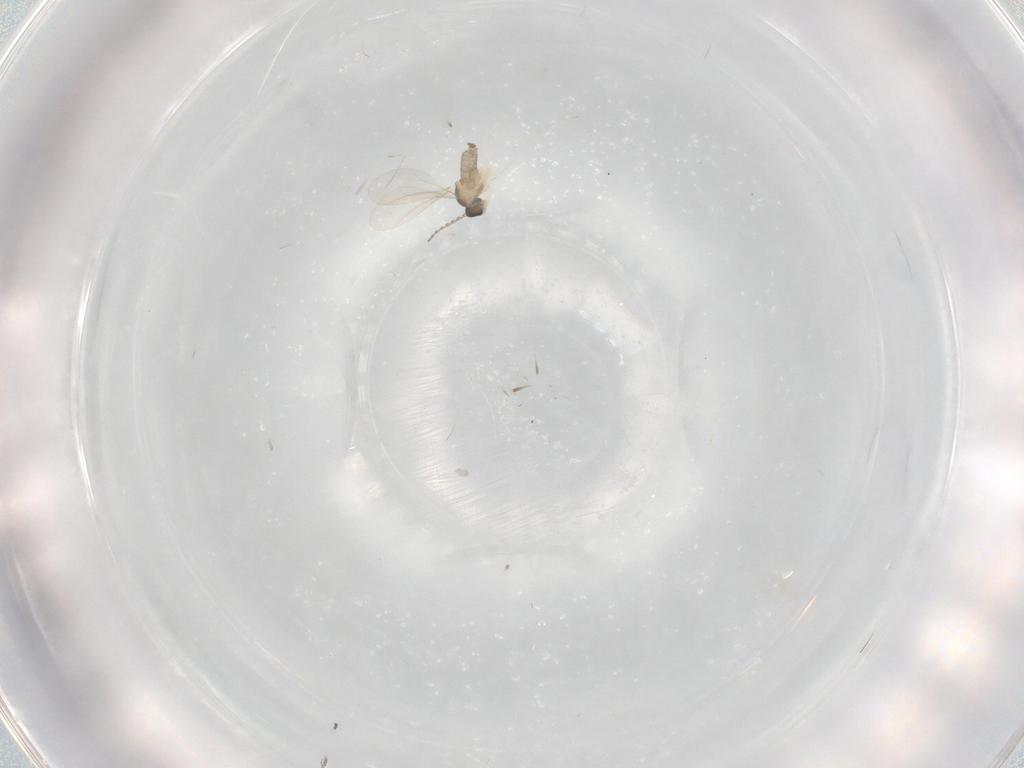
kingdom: Animalia
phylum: Arthropoda
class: Insecta
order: Diptera
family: Cecidomyiidae
